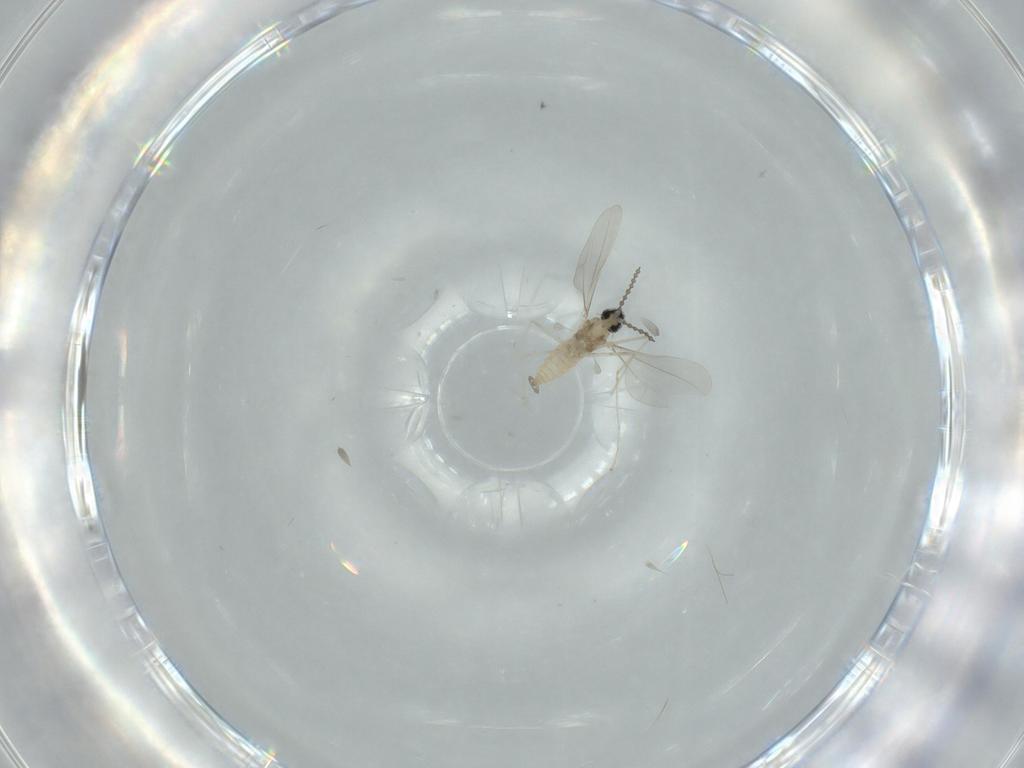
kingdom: Animalia
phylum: Arthropoda
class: Insecta
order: Diptera
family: Cecidomyiidae
